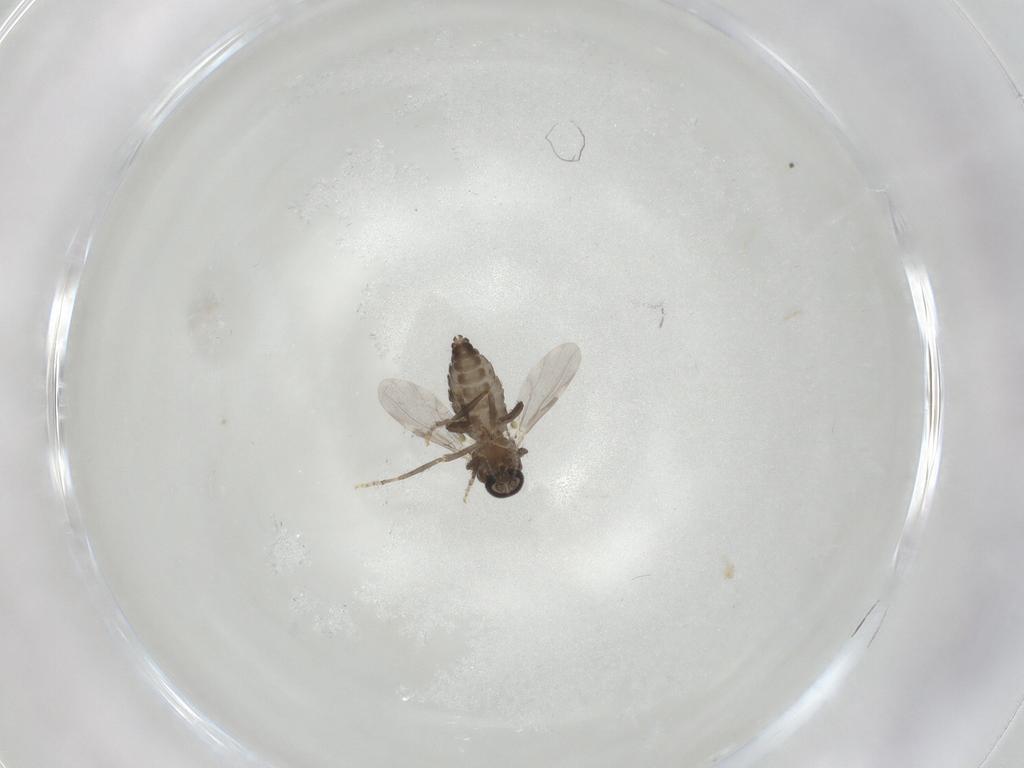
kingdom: Animalia
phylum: Arthropoda
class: Insecta
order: Diptera
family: Ceratopogonidae
